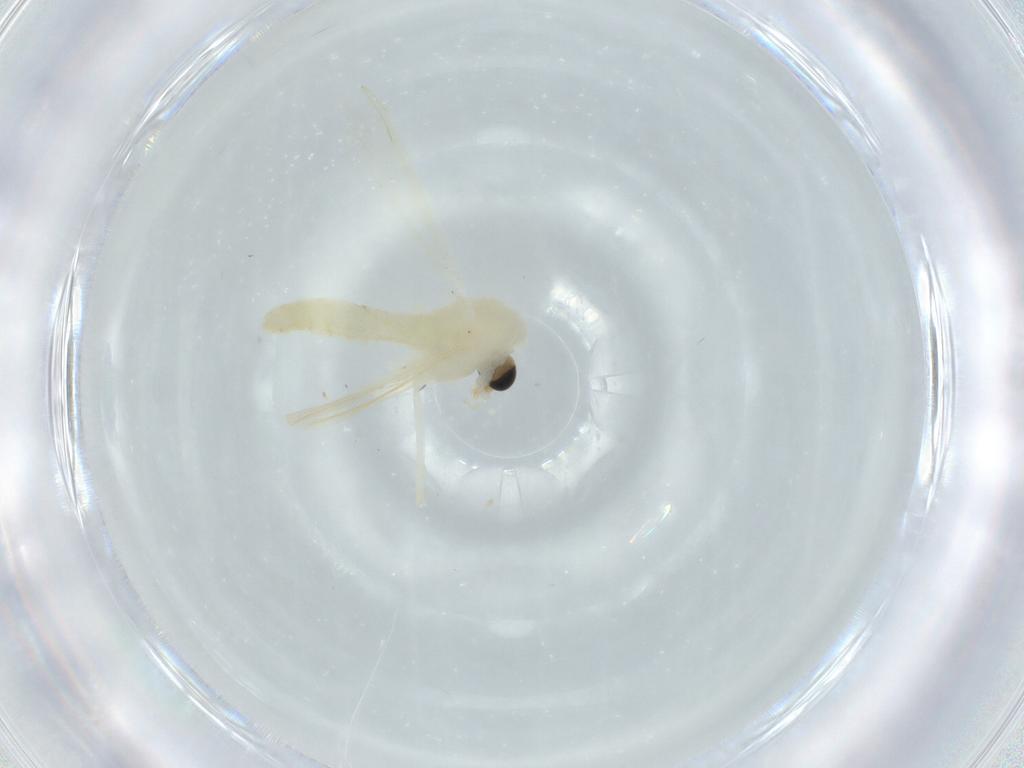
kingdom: Animalia
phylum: Arthropoda
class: Insecta
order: Diptera
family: Chironomidae
